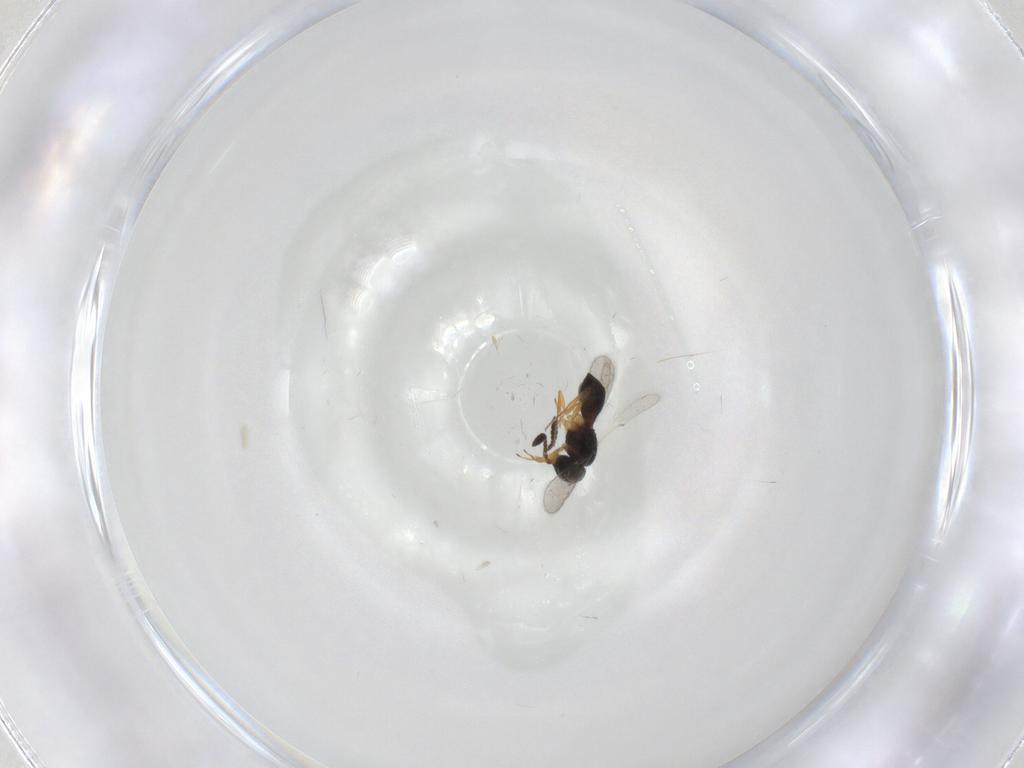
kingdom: Animalia
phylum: Arthropoda
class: Insecta
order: Hymenoptera
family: Scelionidae
